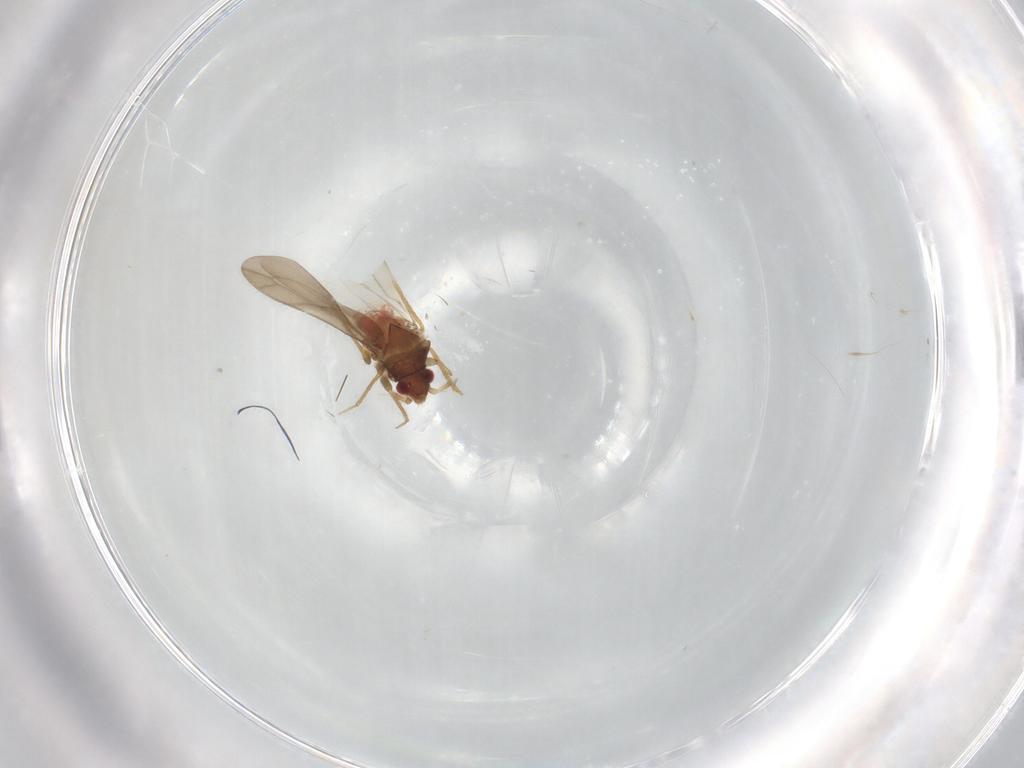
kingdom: Animalia
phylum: Arthropoda
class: Insecta
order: Hemiptera
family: Ceratocombidae
